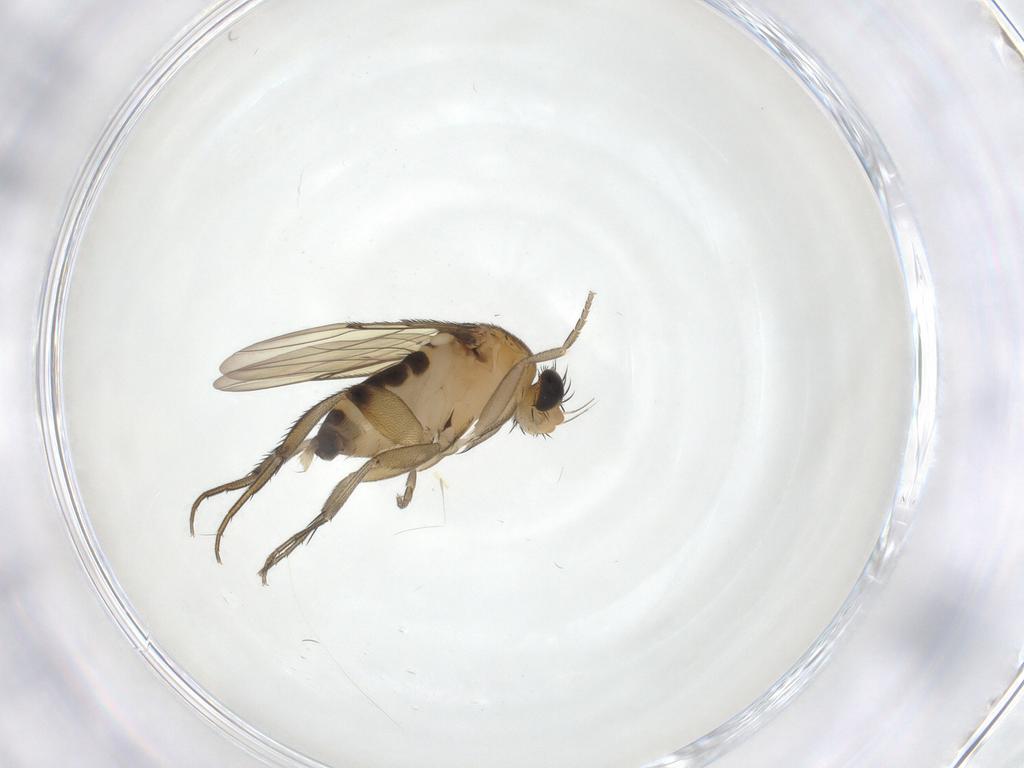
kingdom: Animalia
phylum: Arthropoda
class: Insecta
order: Diptera
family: Phoridae
